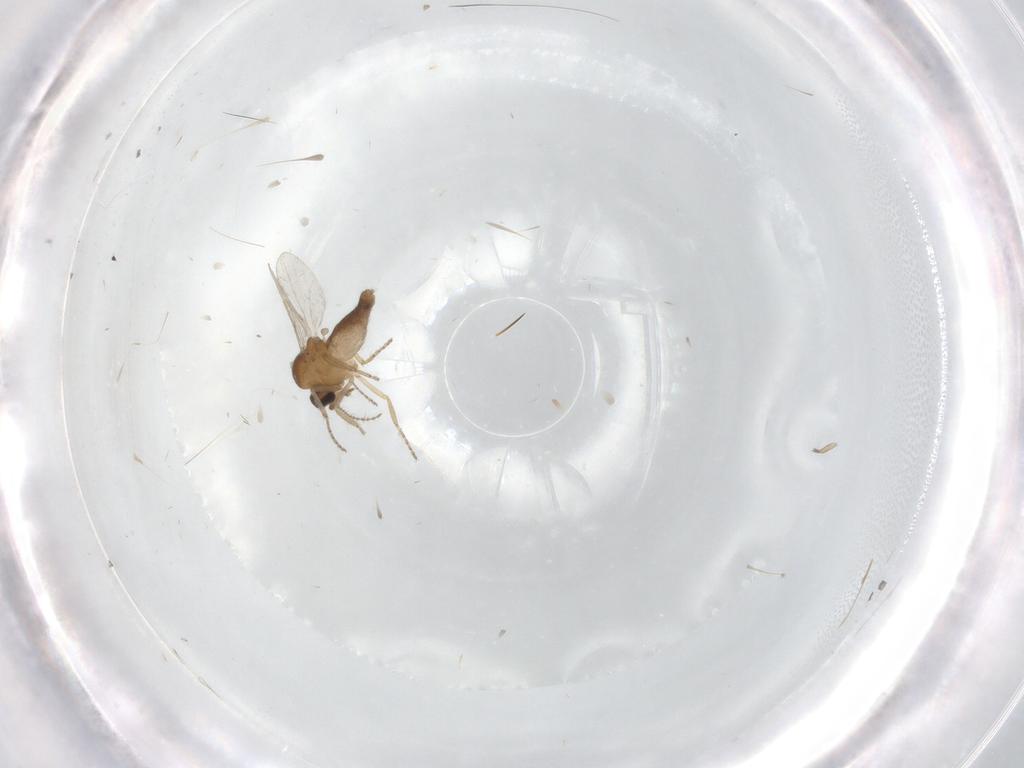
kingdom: Animalia
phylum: Arthropoda
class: Insecta
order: Diptera
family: Ceratopogonidae
